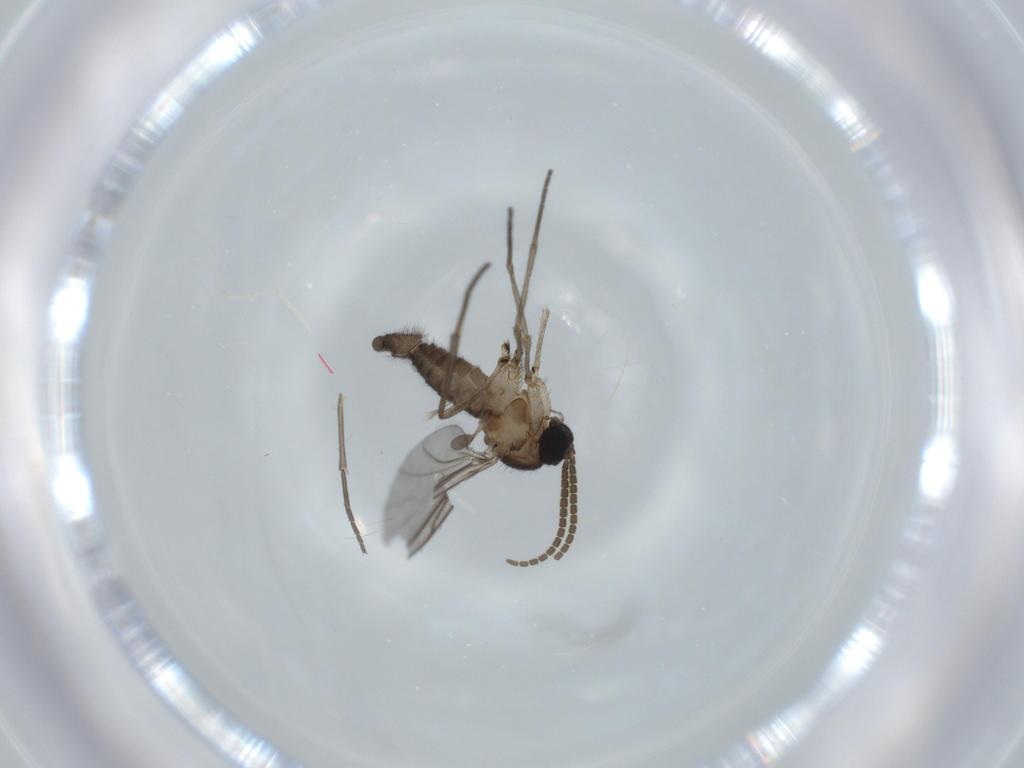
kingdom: Animalia
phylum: Arthropoda
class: Insecta
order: Diptera
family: Sciaridae
